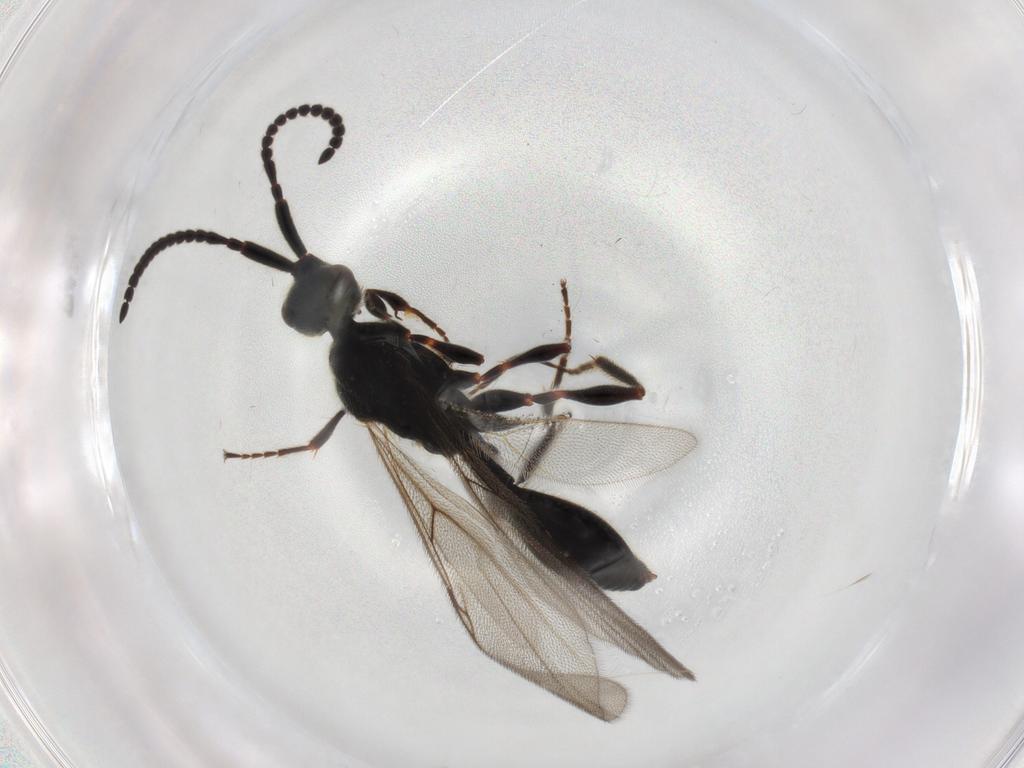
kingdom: Animalia
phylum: Arthropoda
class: Insecta
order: Hymenoptera
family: Platygastridae
